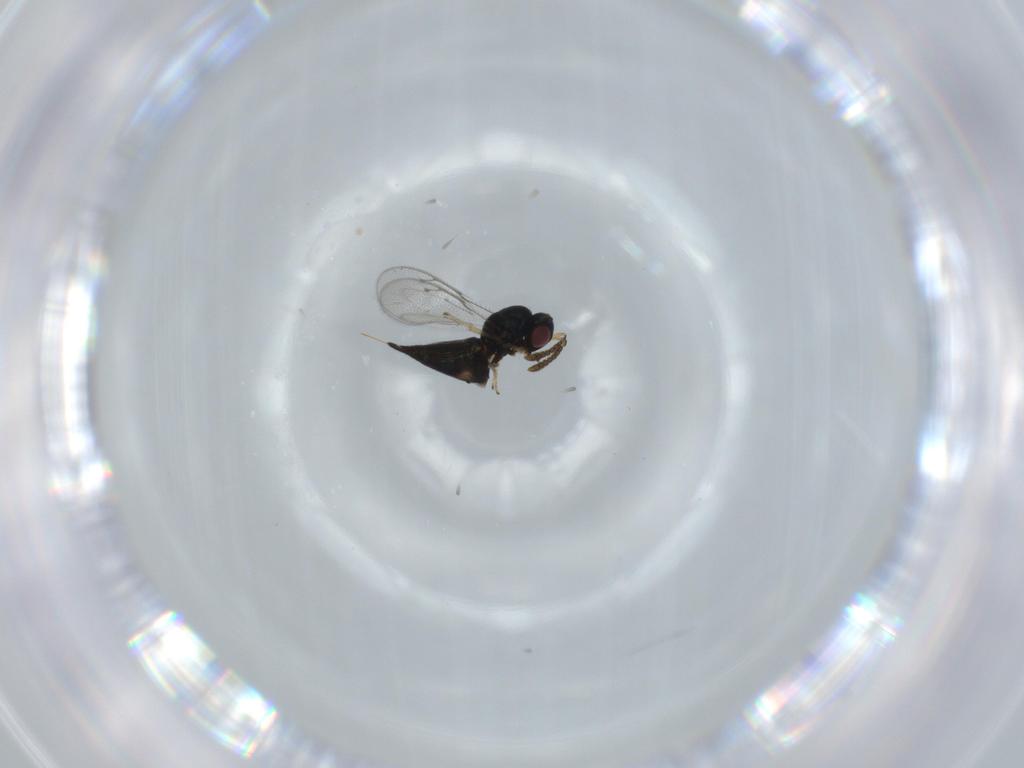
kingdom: Animalia
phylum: Arthropoda
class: Insecta
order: Hymenoptera
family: Pteromalidae
